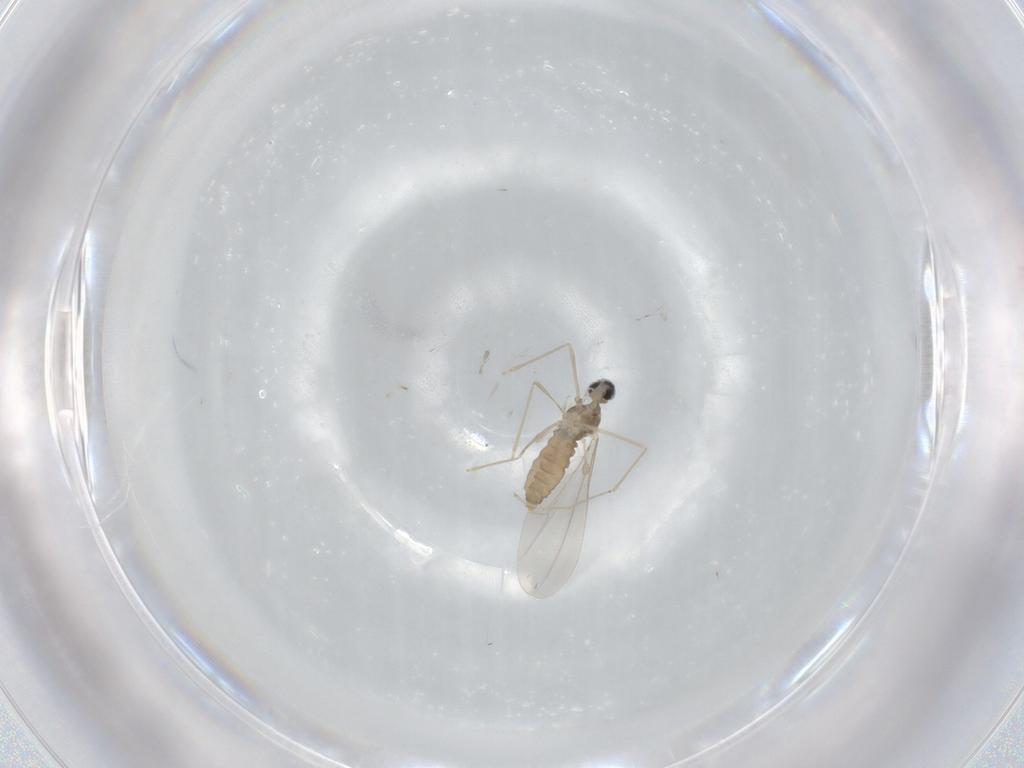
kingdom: Animalia
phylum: Arthropoda
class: Insecta
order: Diptera
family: Cecidomyiidae
